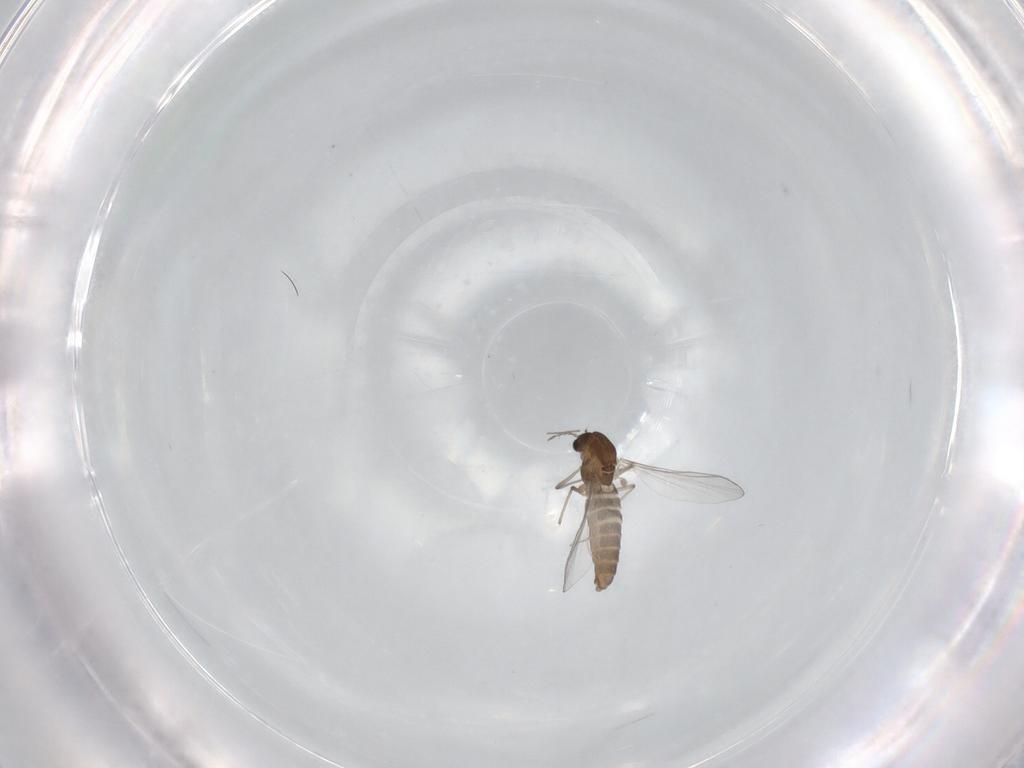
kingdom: Animalia
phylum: Arthropoda
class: Insecta
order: Diptera
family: Chironomidae
